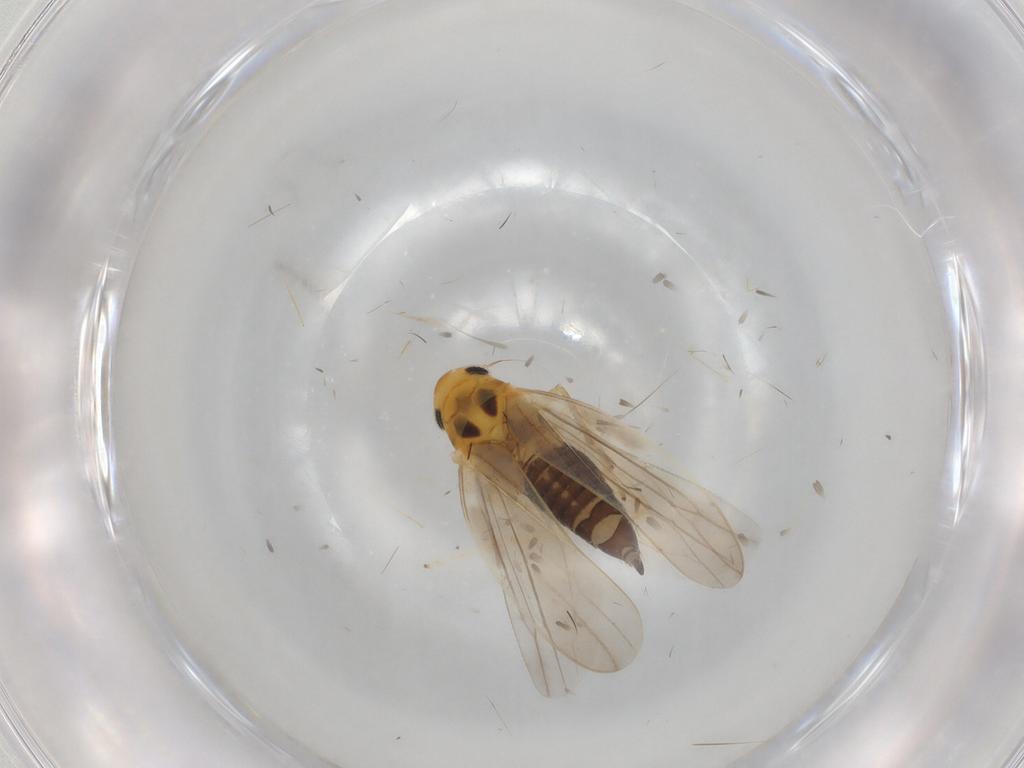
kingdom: Animalia
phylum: Arthropoda
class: Insecta
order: Hemiptera
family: Cicadellidae
